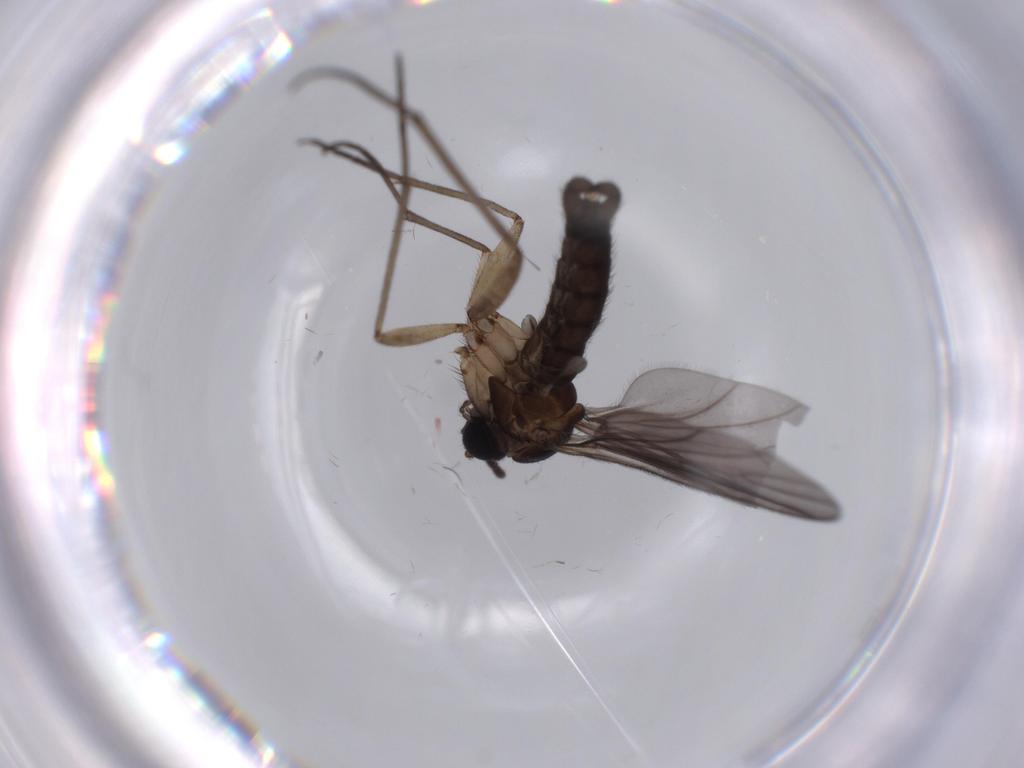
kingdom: Animalia
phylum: Arthropoda
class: Insecta
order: Diptera
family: Sciaridae
